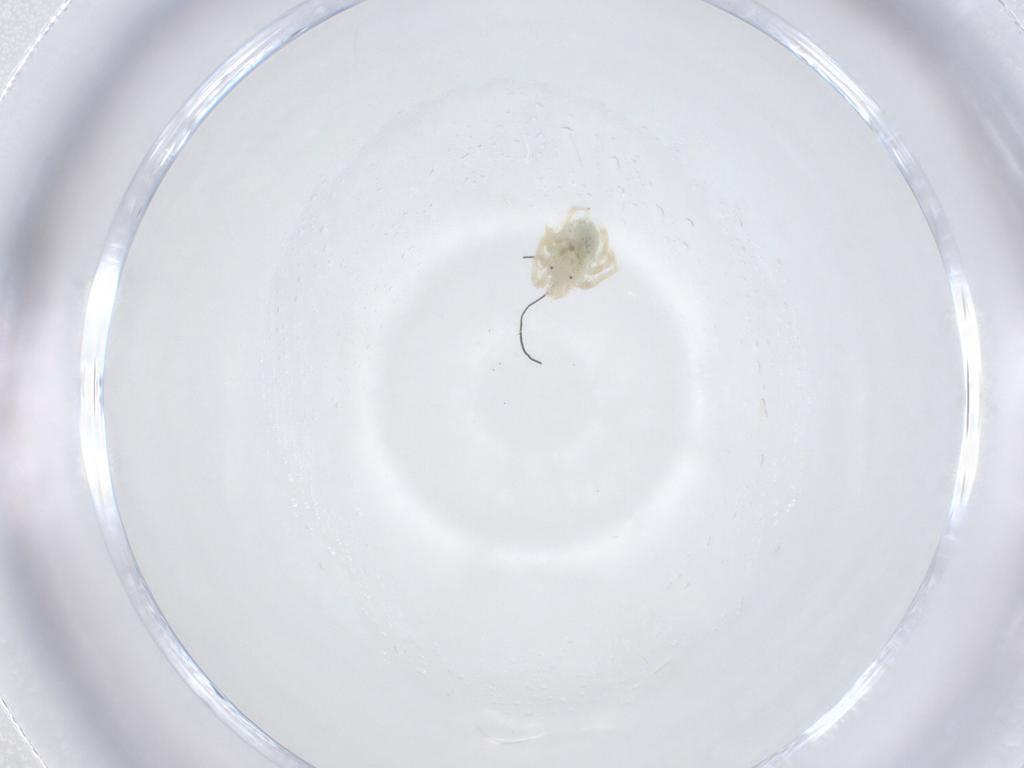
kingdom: Animalia
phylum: Arthropoda
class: Arachnida
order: Trombidiformes
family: Anystidae
